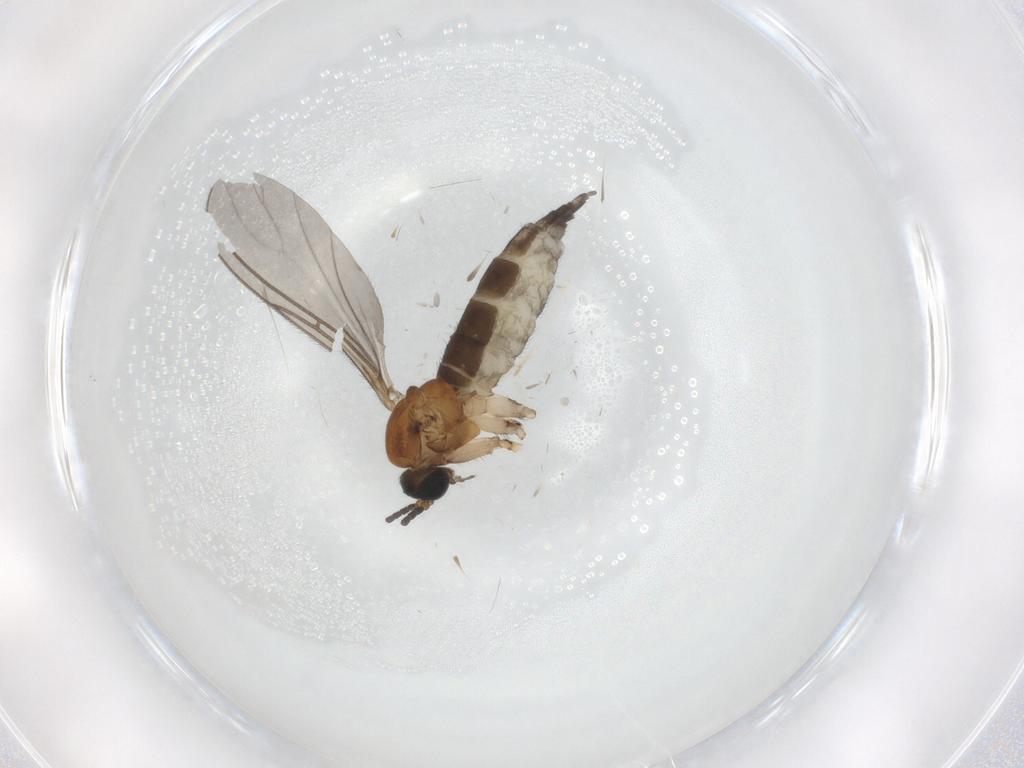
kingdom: Animalia
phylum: Arthropoda
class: Insecta
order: Diptera
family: Sciaridae
